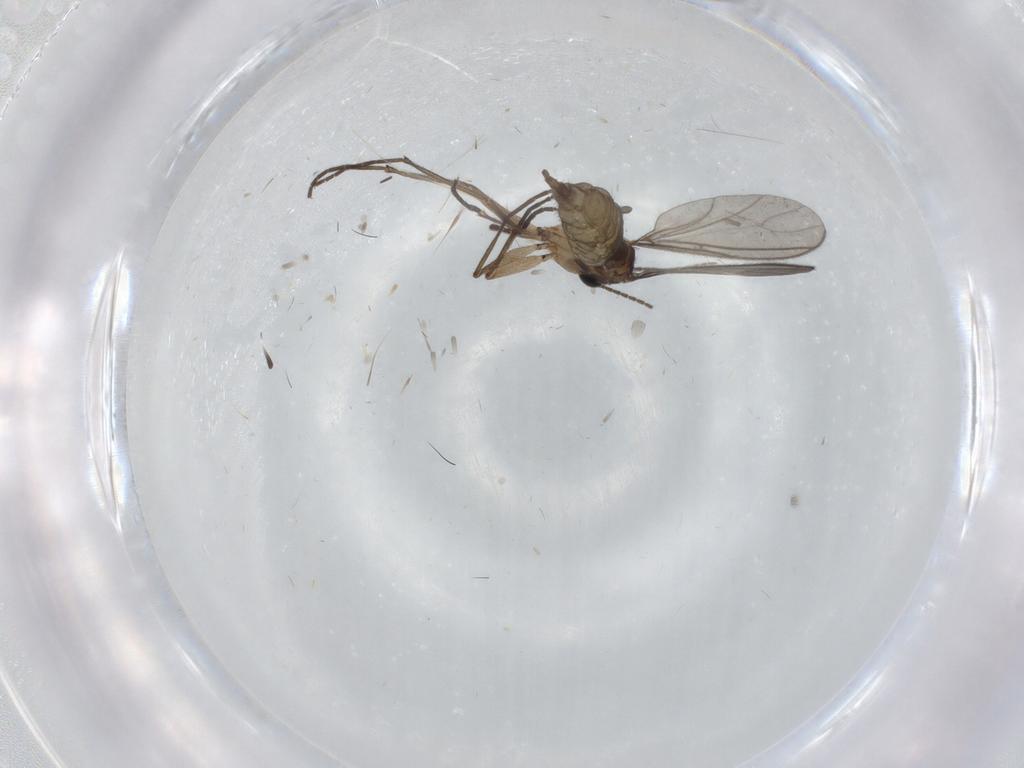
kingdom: Animalia
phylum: Arthropoda
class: Insecta
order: Diptera
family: Sciaridae
